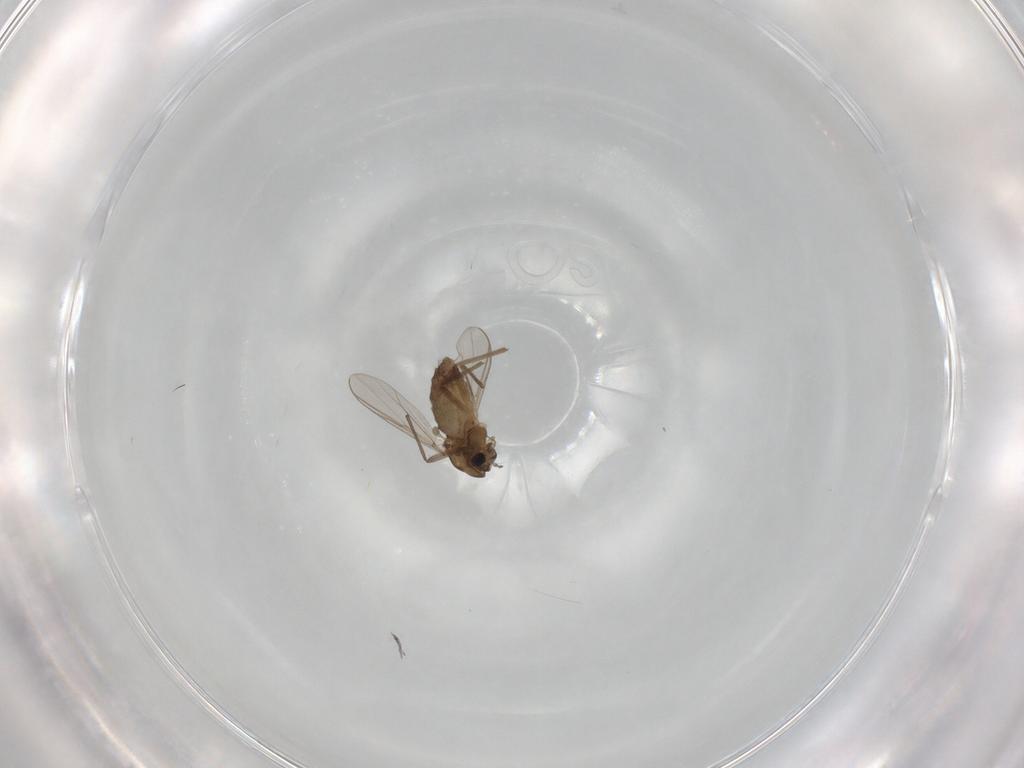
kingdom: Animalia
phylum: Arthropoda
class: Insecta
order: Diptera
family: Chironomidae
